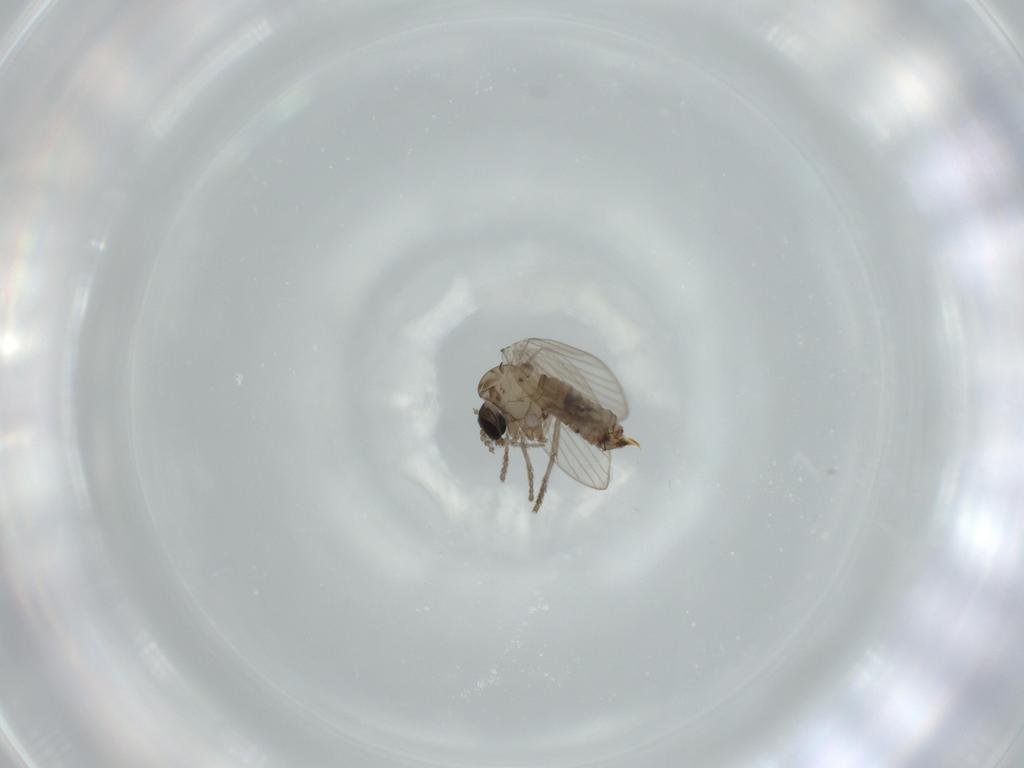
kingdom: Animalia
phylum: Arthropoda
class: Insecta
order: Diptera
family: Psychodidae
